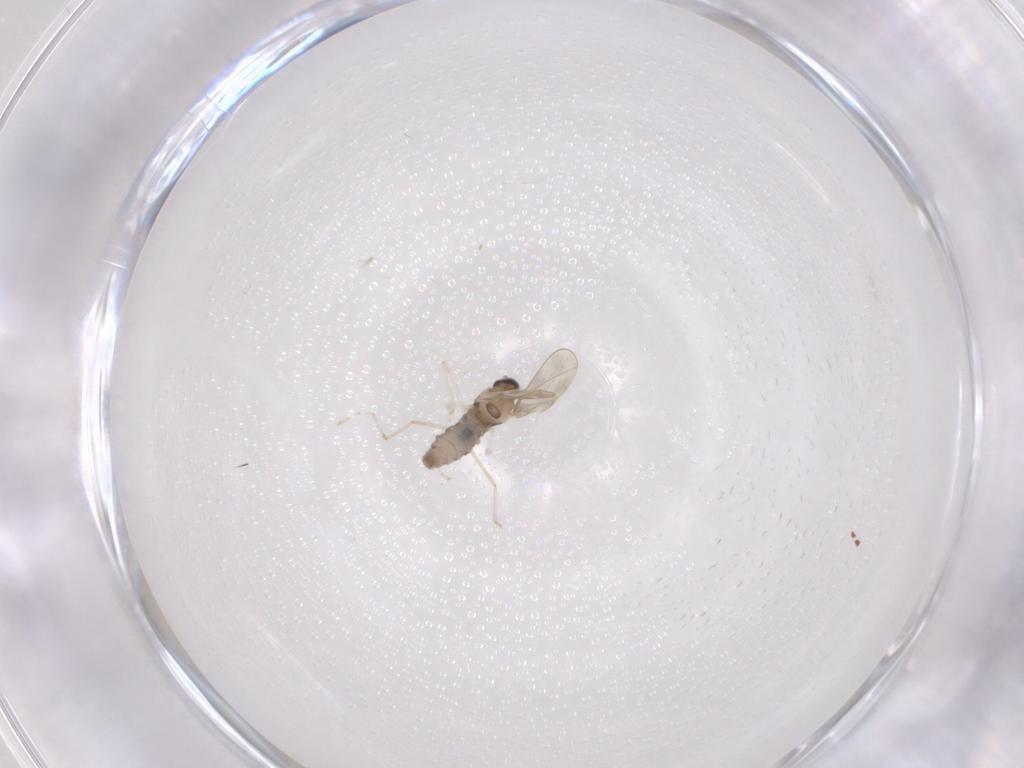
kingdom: Animalia
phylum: Arthropoda
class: Insecta
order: Diptera
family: Cecidomyiidae
